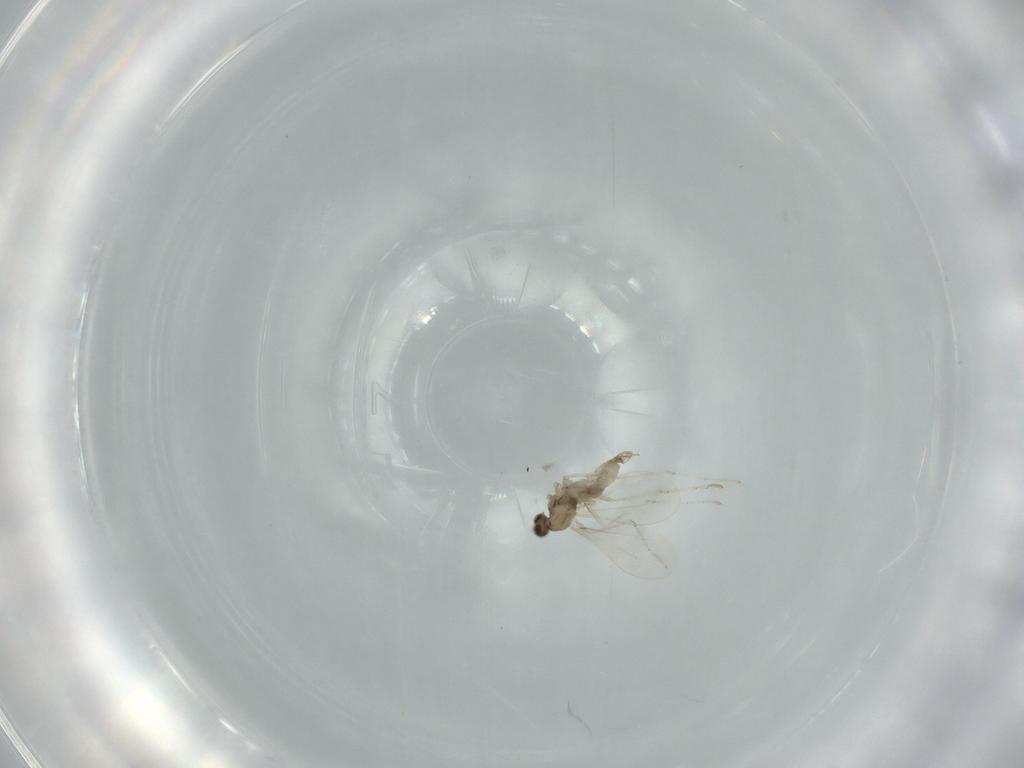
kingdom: Animalia
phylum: Arthropoda
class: Insecta
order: Diptera
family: Cecidomyiidae
